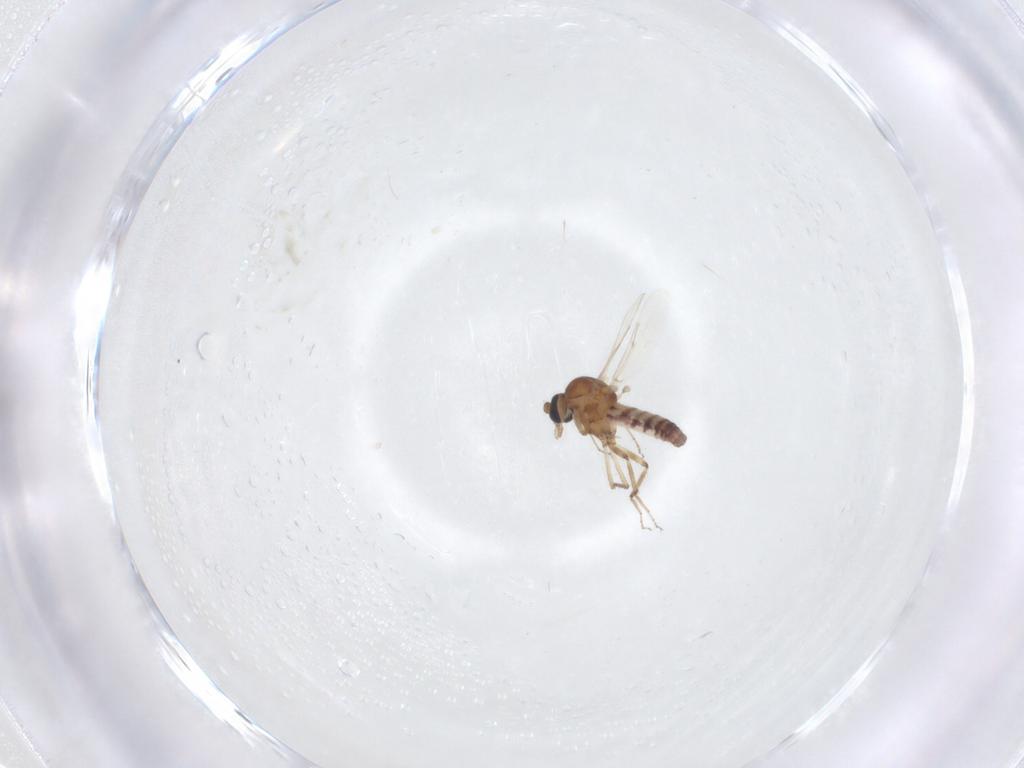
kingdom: Animalia
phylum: Arthropoda
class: Insecta
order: Diptera
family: Ceratopogonidae
